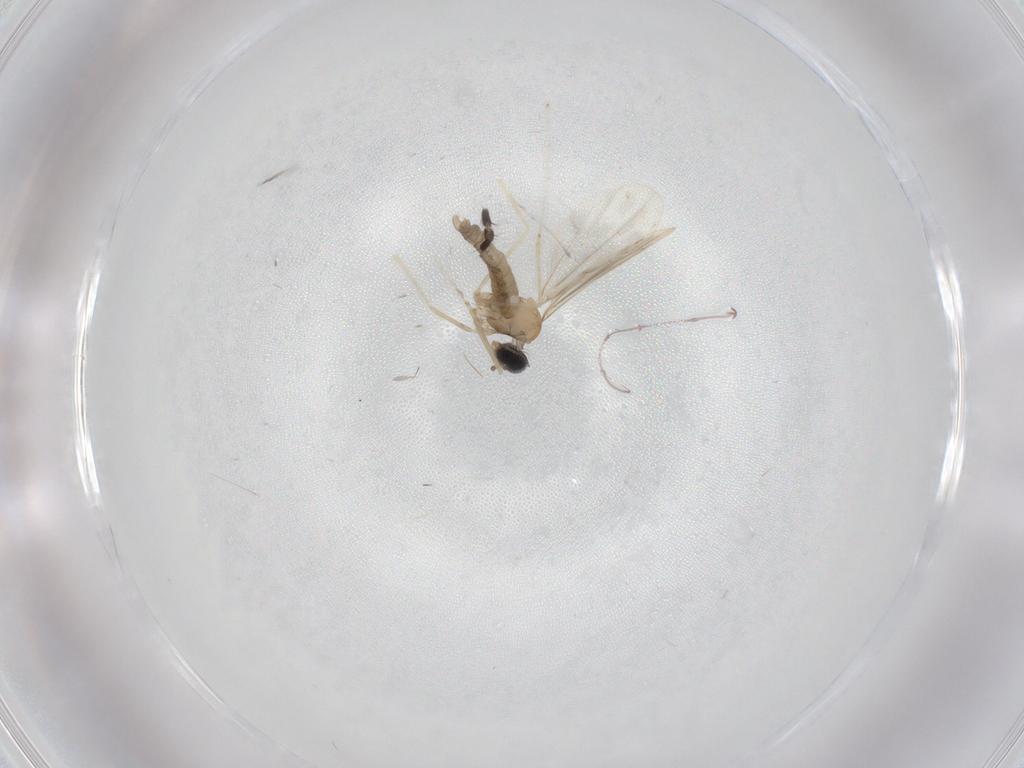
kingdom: Animalia
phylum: Arthropoda
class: Insecta
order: Diptera
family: Cecidomyiidae
